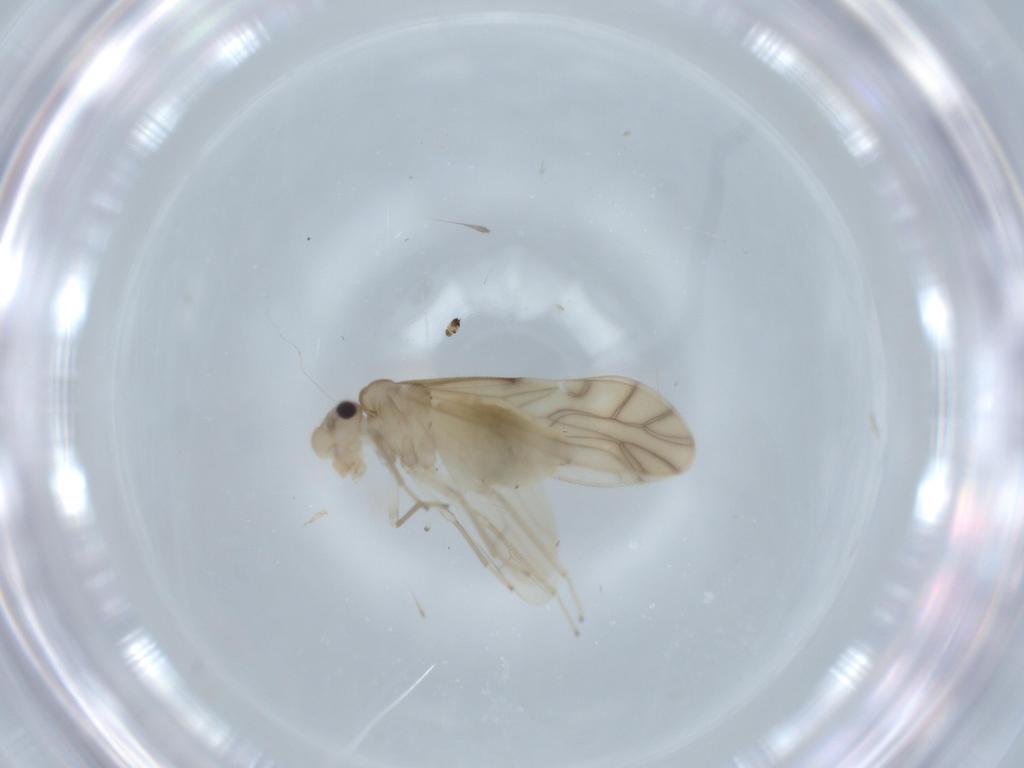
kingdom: Animalia
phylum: Arthropoda
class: Insecta
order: Psocodea
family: Caeciliusidae
